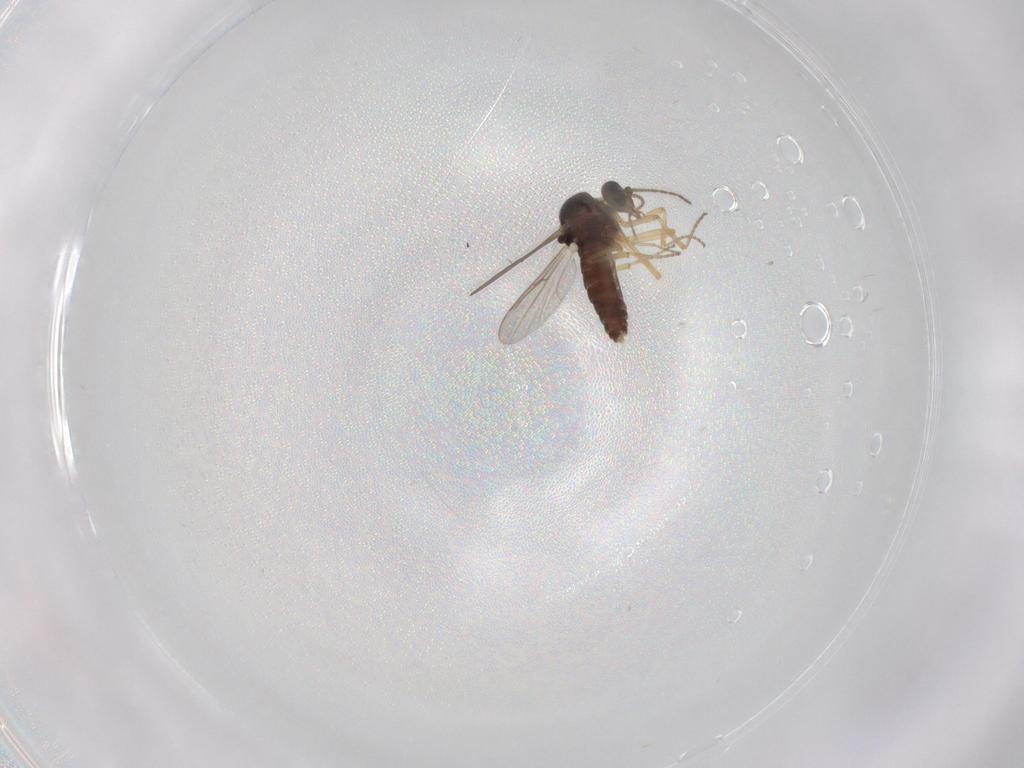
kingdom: Animalia
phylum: Arthropoda
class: Insecta
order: Diptera
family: Ceratopogonidae
